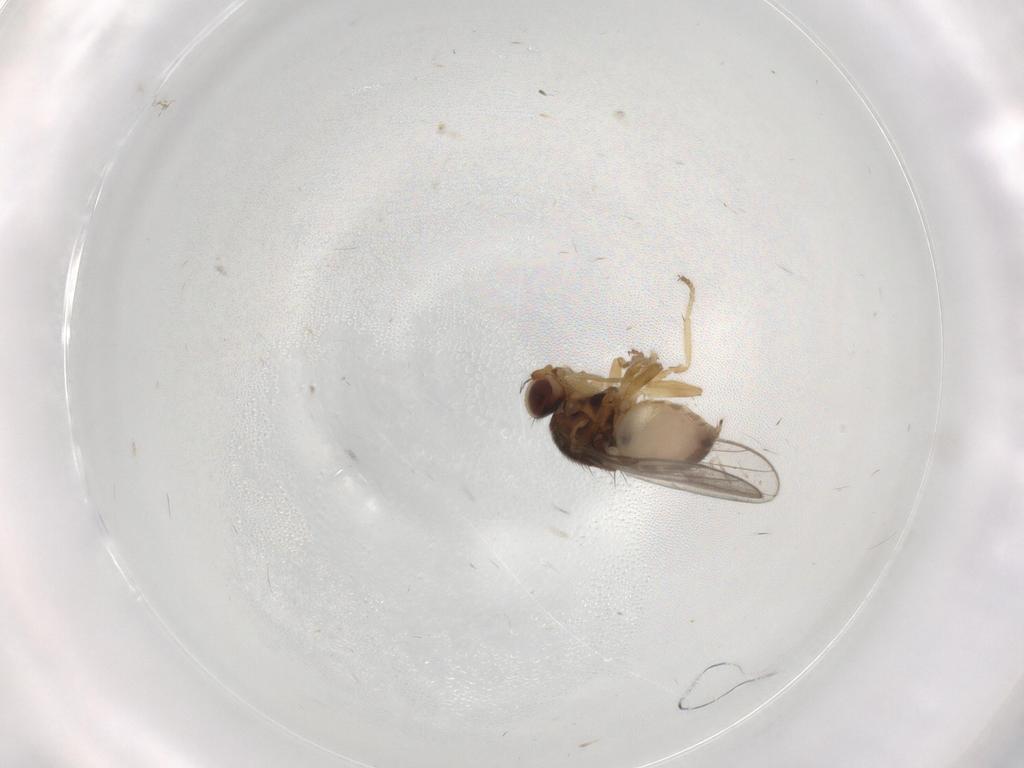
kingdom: Animalia
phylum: Arthropoda
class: Insecta
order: Diptera
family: Chloropidae
